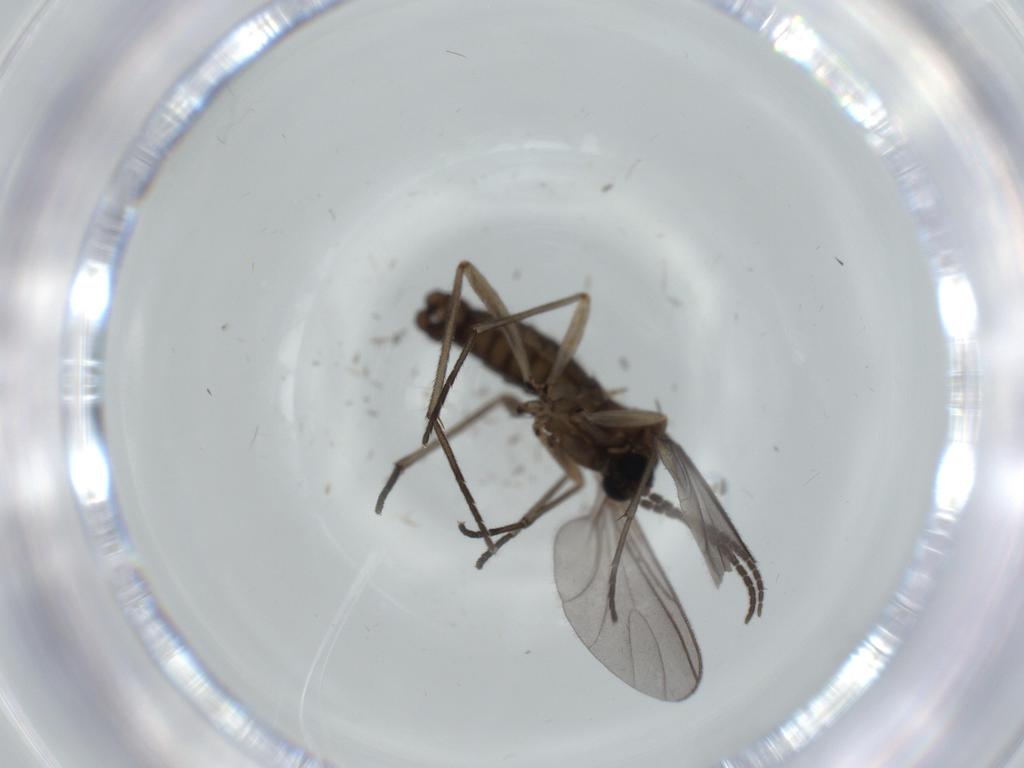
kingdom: Animalia
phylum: Arthropoda
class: Insecta
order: Diptera
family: Sciaridae
